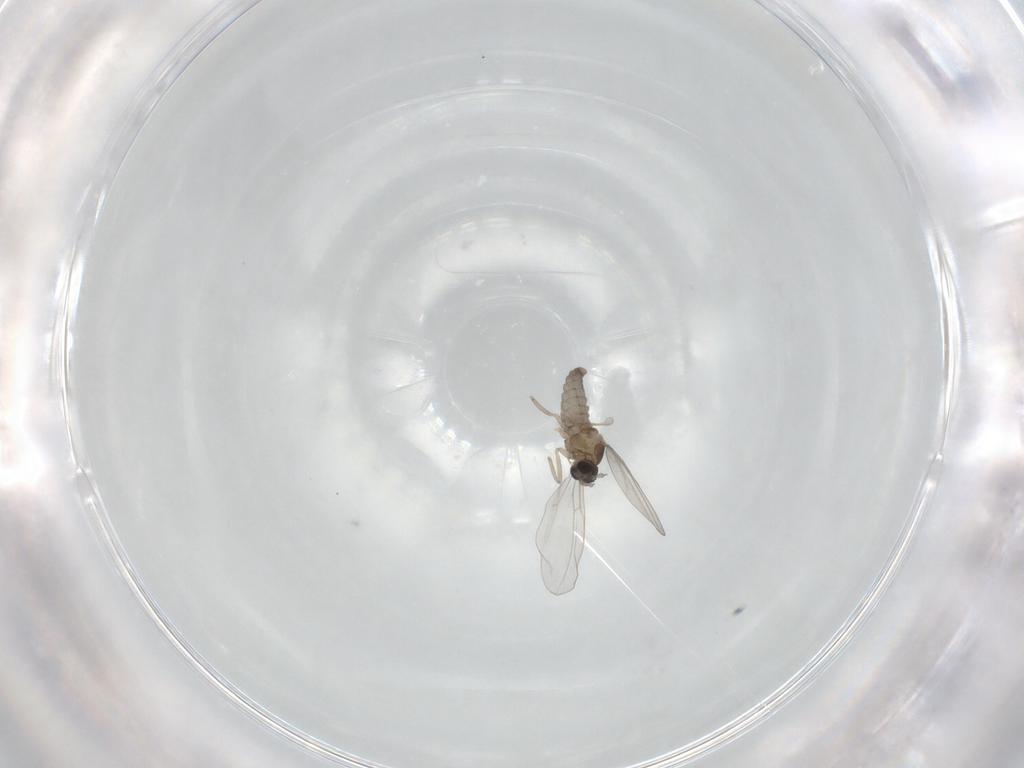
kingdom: Animalia
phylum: Arthropoda
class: Insecta
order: Diptera
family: Cecidomyiidae
